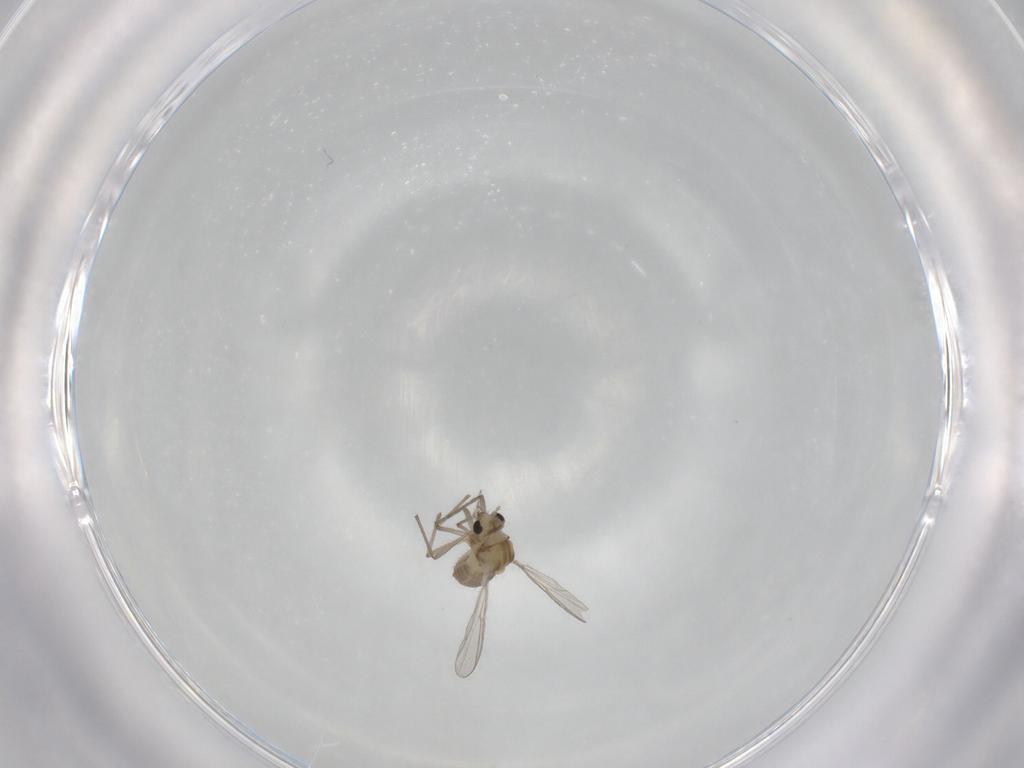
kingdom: Animalia
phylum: Arthropoda
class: Insecta
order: Diptera
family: Chironomidae
